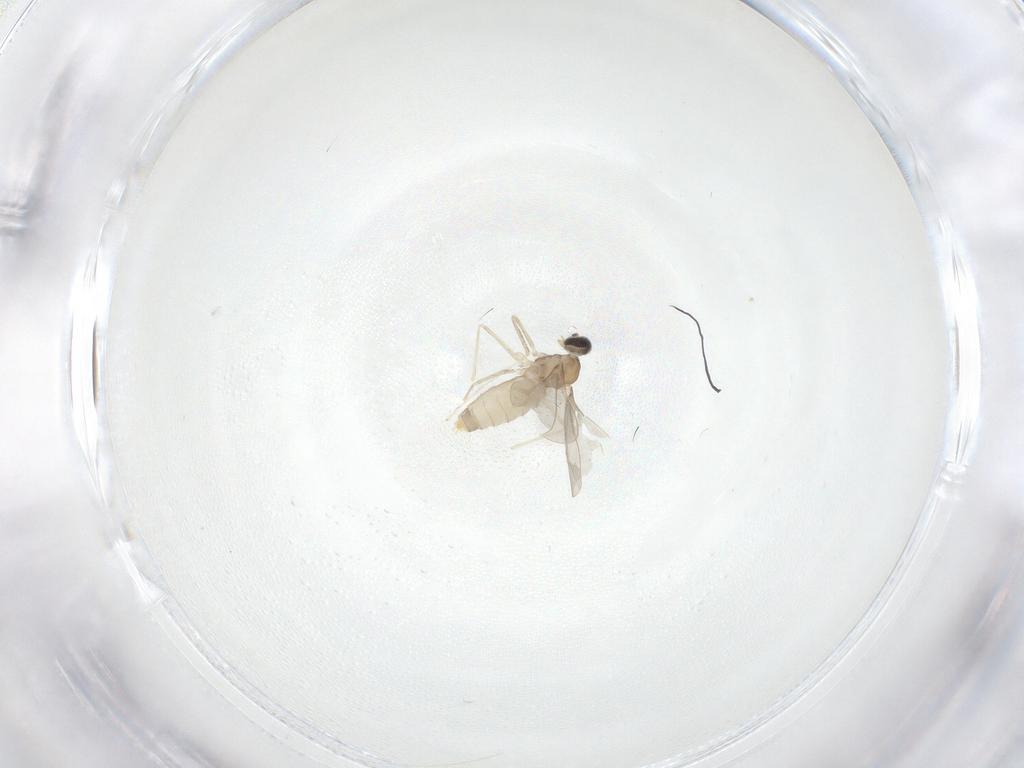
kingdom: Animalia
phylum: Arthropoda
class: Insecta
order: Diptera
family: Cecidomyiidae
